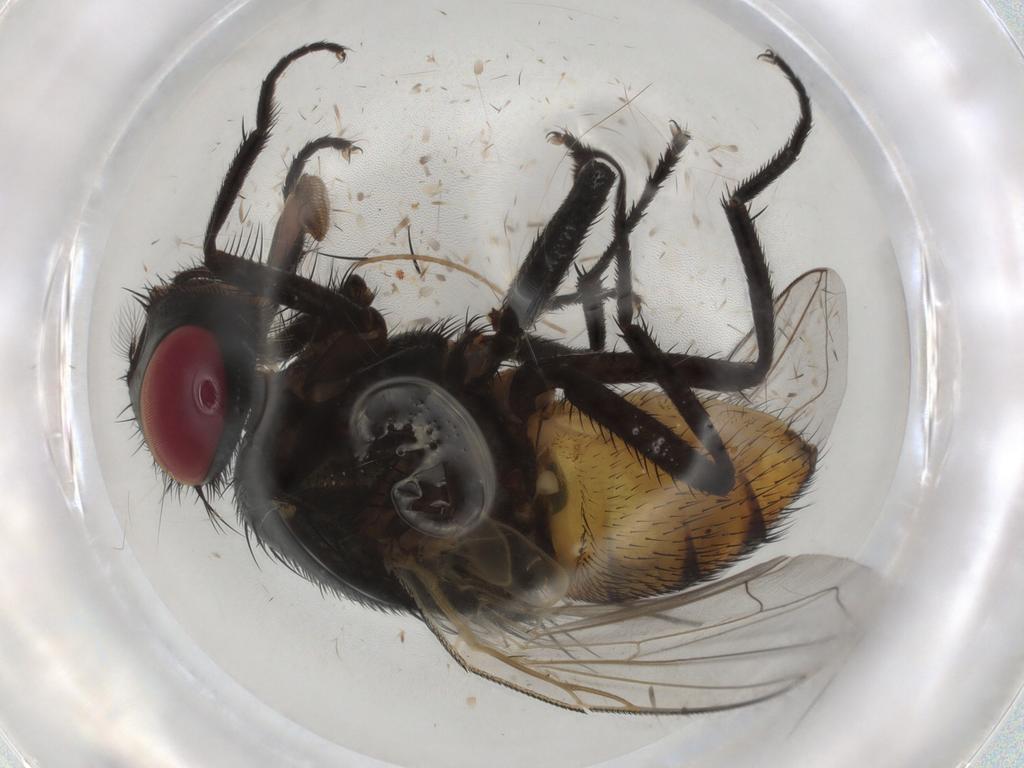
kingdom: Animalia
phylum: Arthropoda
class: Insecta
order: Diptera
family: Muscidae
